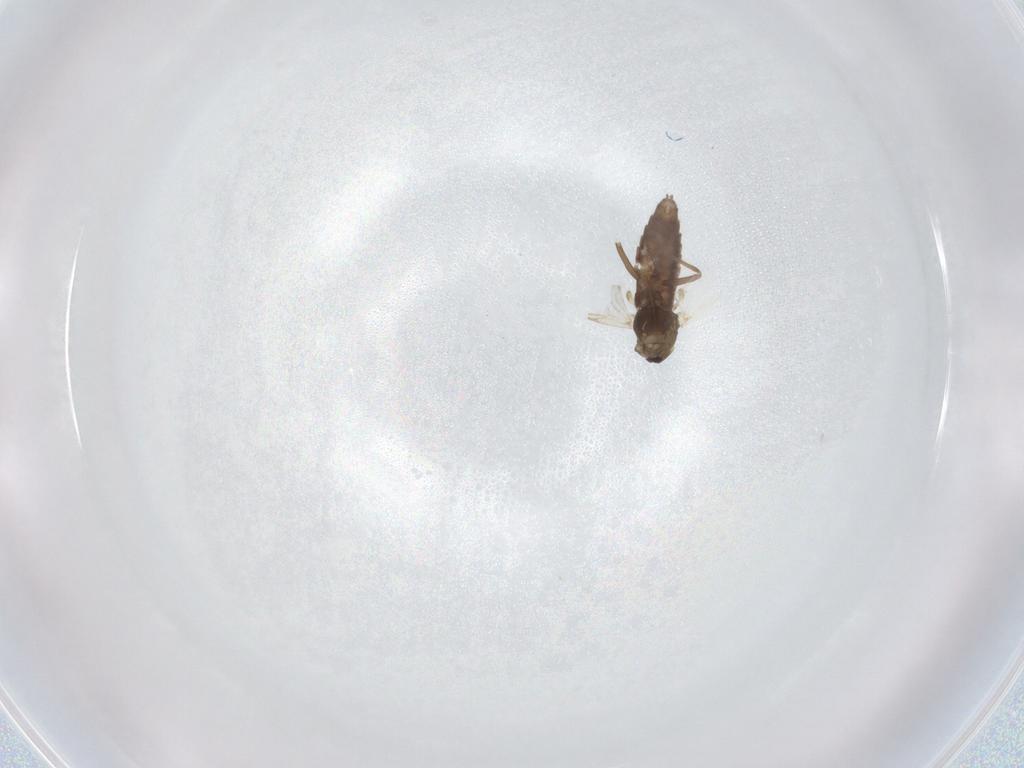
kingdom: Animalia
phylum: Arthropoda
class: Insecta
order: Diptera
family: Chironomidae
